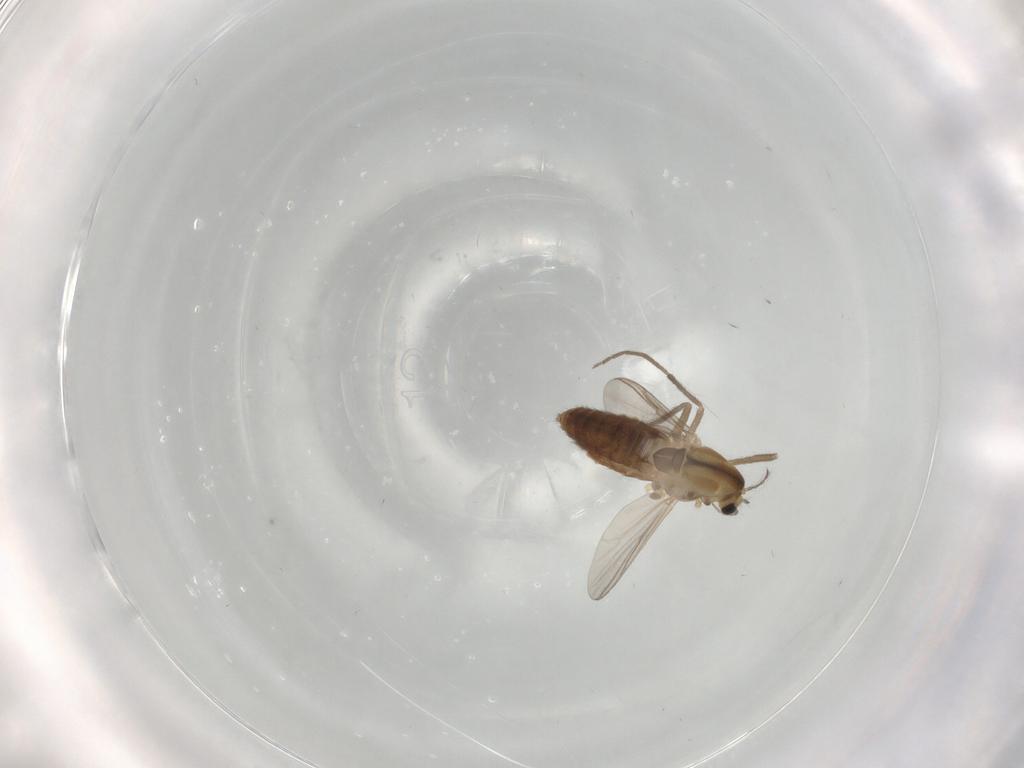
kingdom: Animalia
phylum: Arthropoda
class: Insecta
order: Diptera
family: Chironomidae
